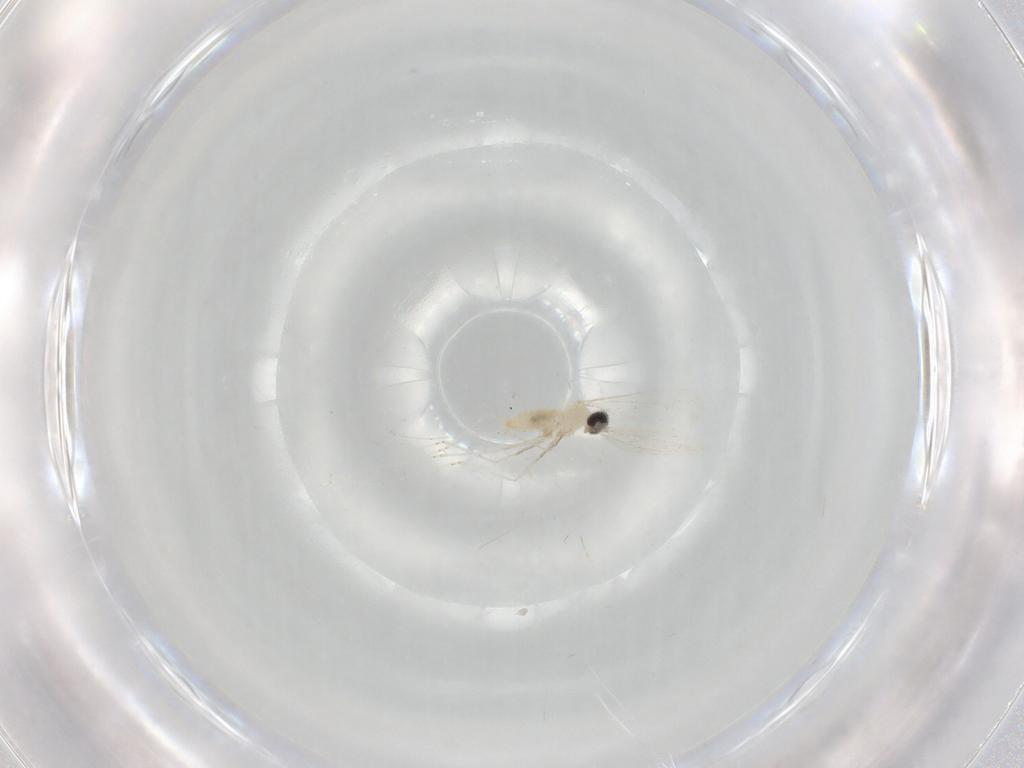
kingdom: Animalia
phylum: Arthropoda
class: Insecta
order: Diptera
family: Cecidomyiidae
